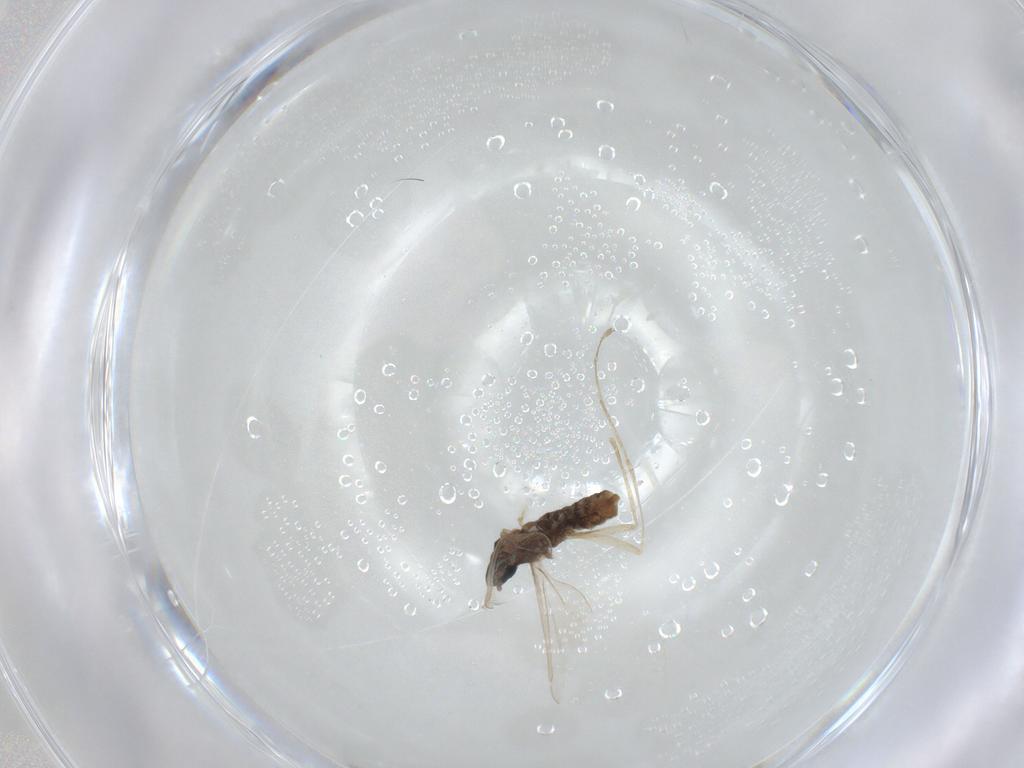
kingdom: Animalia
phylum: Arthropoda
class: Insecta
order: Diptera
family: Cecidomyiidae
